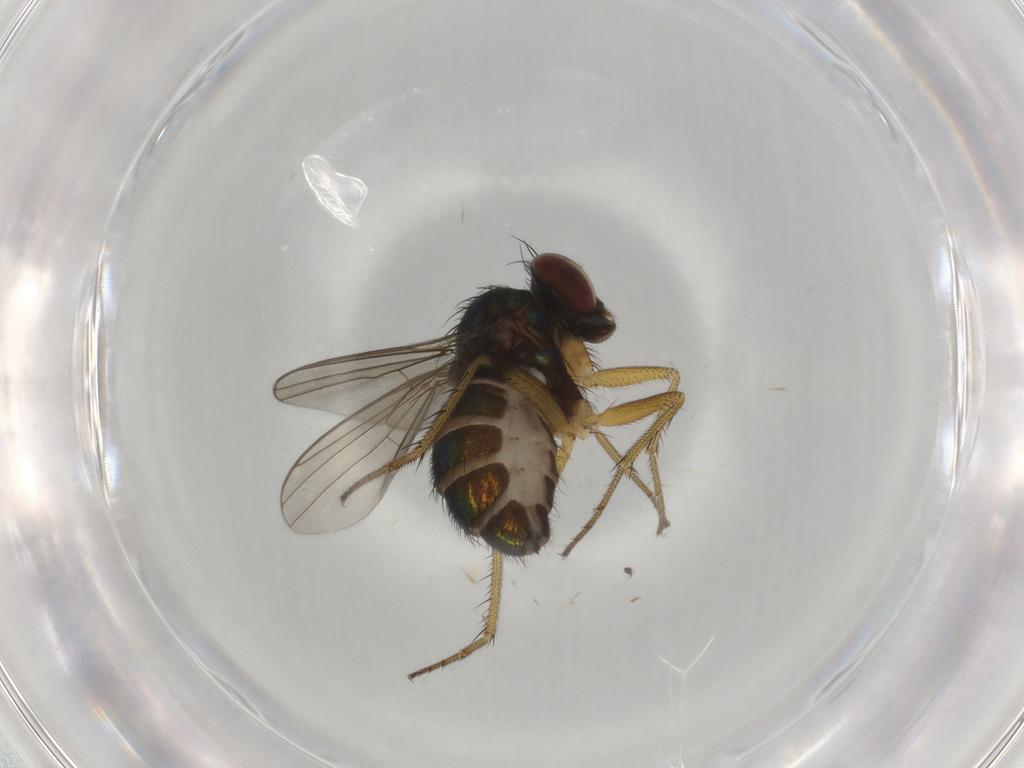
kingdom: Animalia
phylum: Arthropoda
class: Insecta
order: Diptera
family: Dolichopodidae
